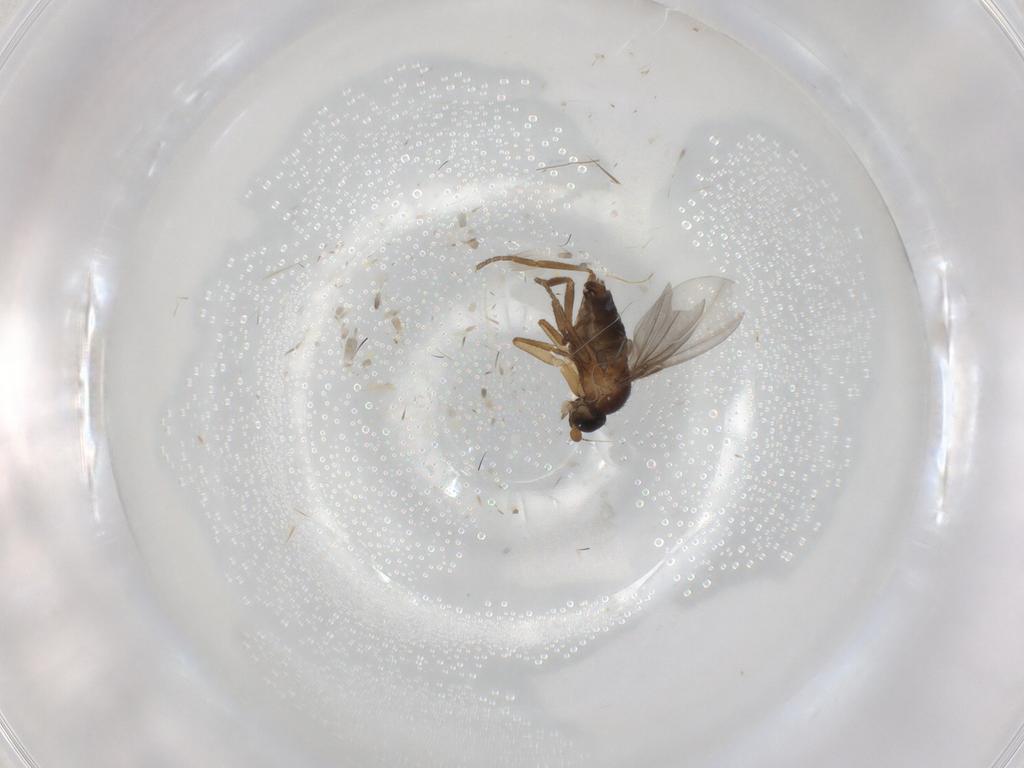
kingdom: Animalia
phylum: Arthropoda
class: Insecta
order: Diptera
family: Phoridae
